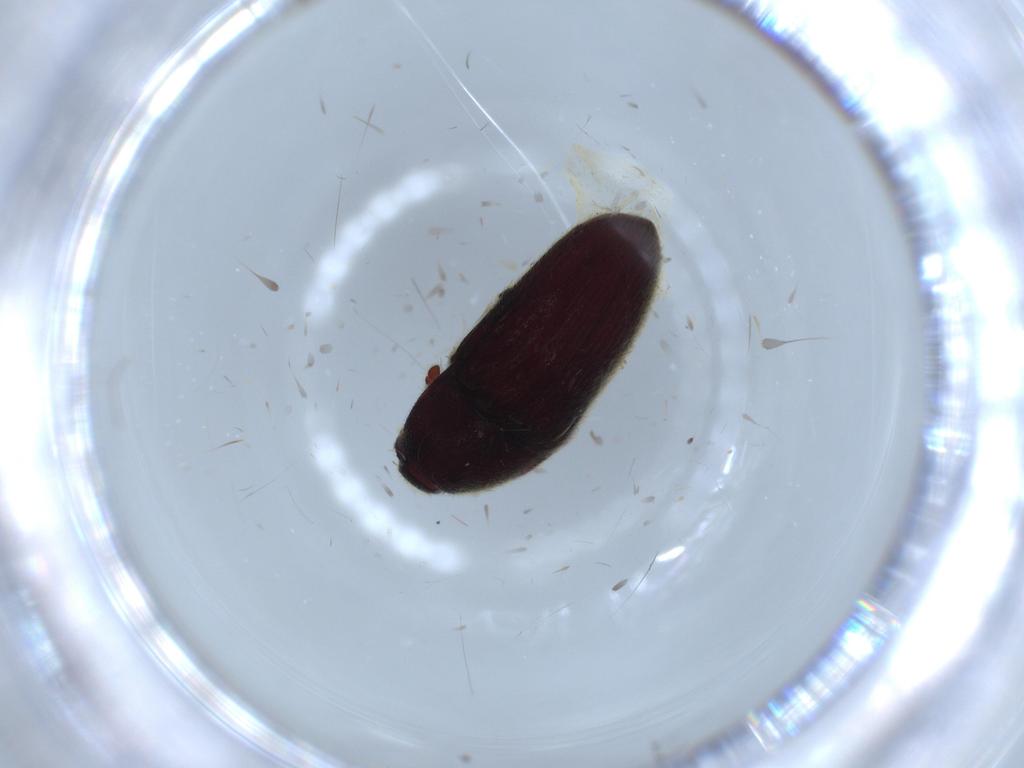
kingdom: Animalia
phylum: Arthropoda
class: Insecta
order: Coleoptera
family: Throscidae
